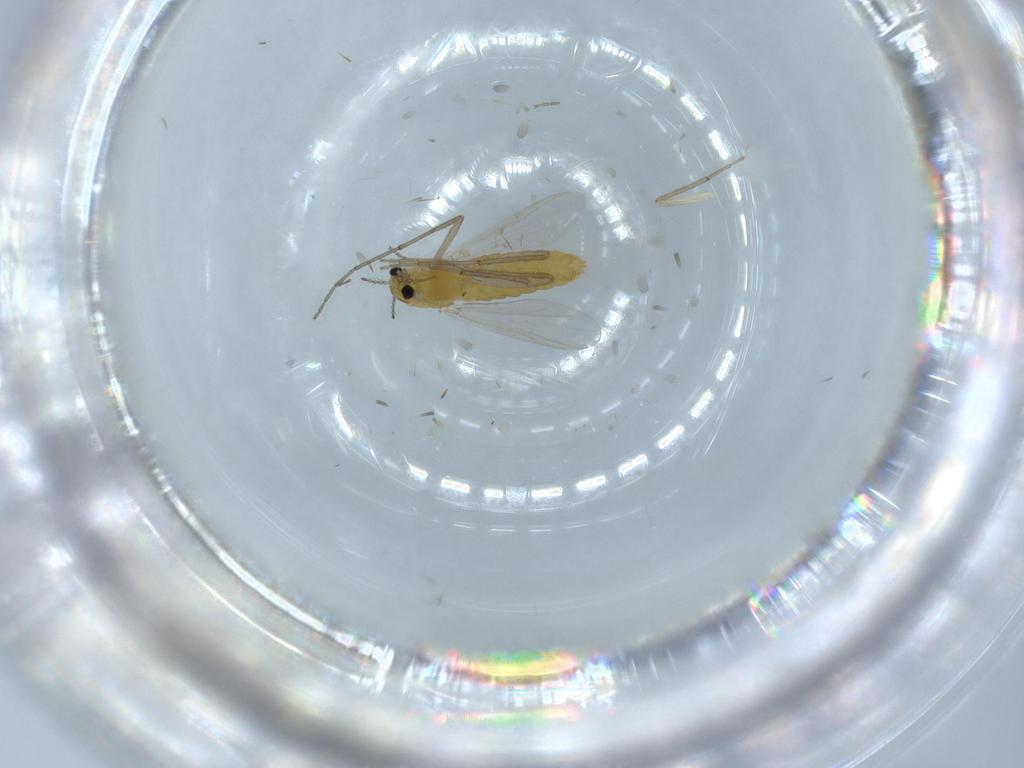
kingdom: Animalia
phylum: Arthropoda
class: Insecta
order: Diptera
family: Chironomidae
